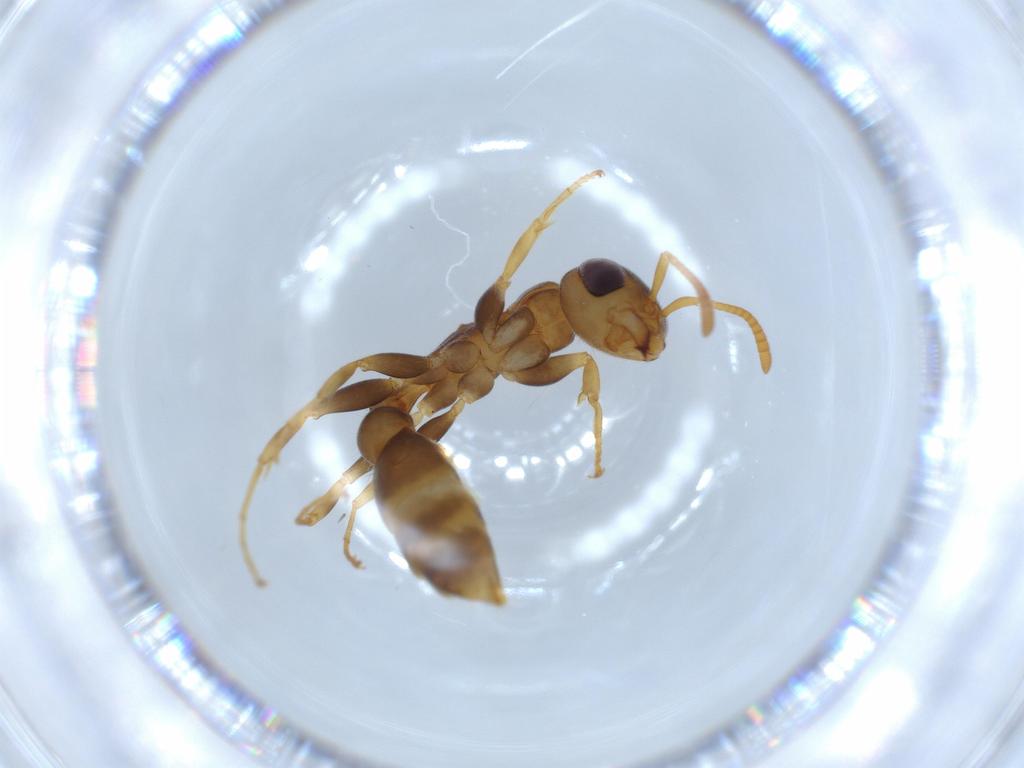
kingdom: Animalia
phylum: Arthropoda
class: Insecta
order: Hymenoptera
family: Formicidae
